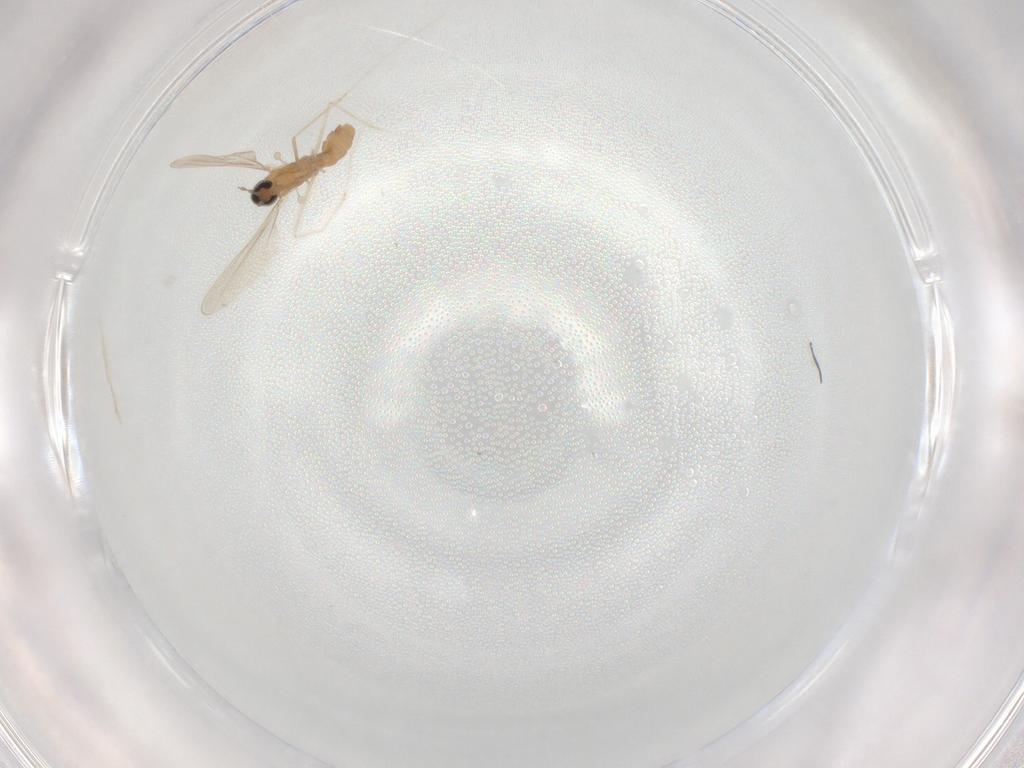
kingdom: Animalia
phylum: Arthropoda
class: Insecta
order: Diptera
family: Cecidomyiidae
